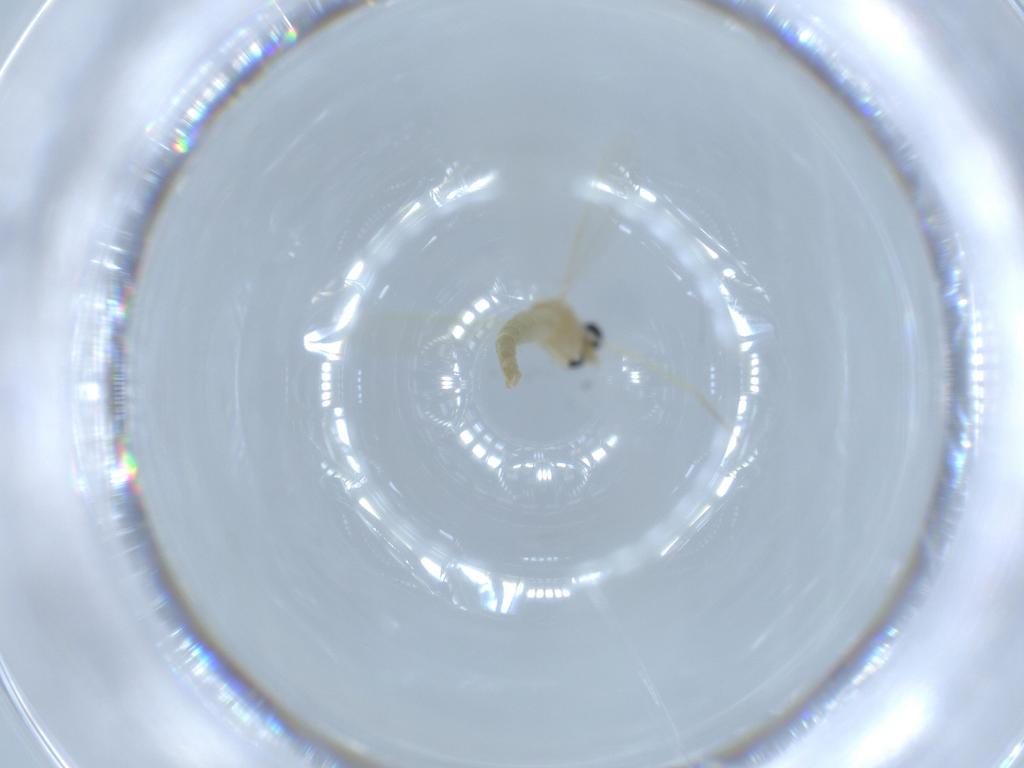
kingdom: Animalia
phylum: Arthropoda
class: Insecta
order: Diptera
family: Chironomidae
